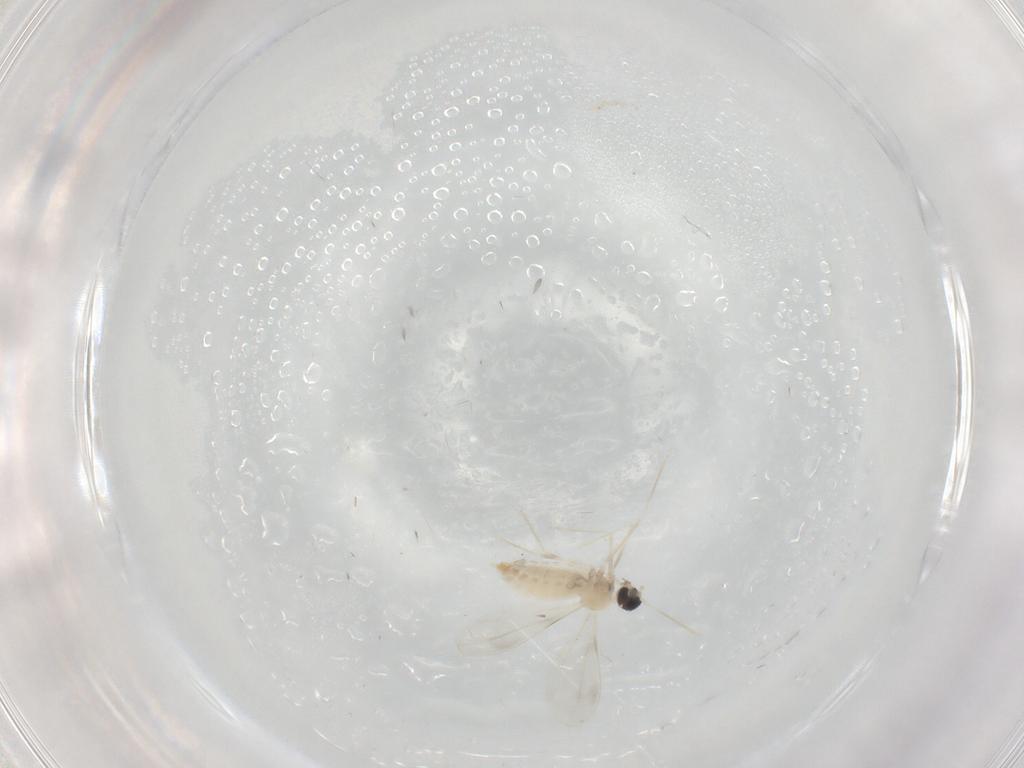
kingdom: Animalia
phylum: Arthropoda
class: Insecta
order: Diptera
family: Cecidomyiidae
